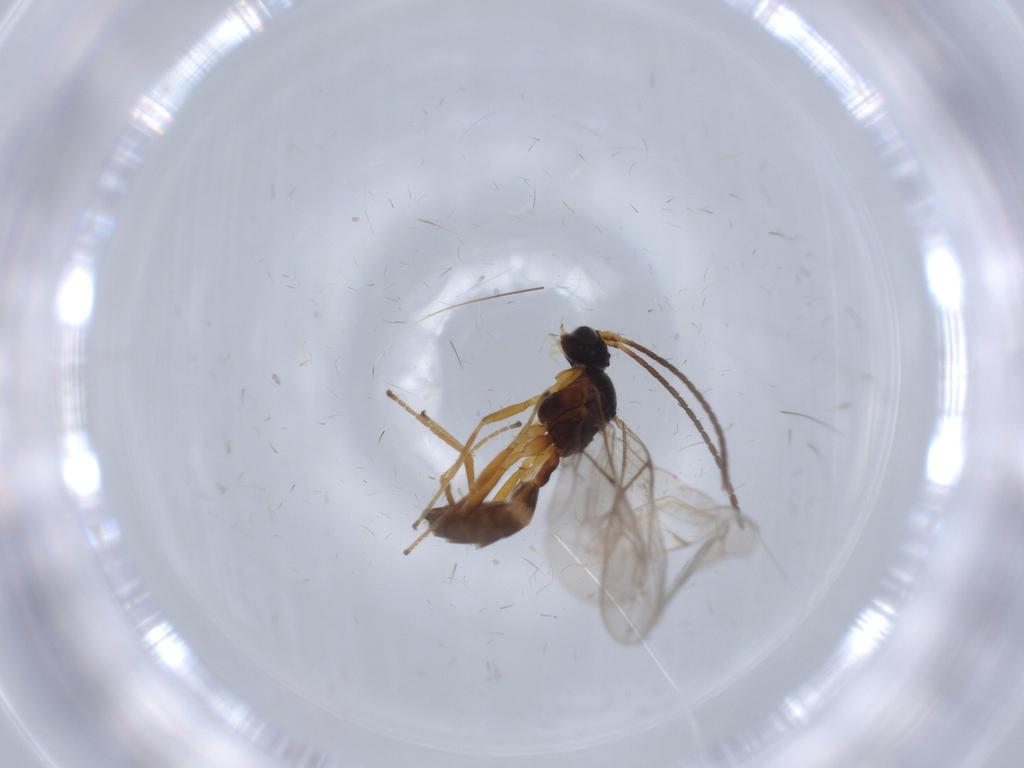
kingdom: Animalia
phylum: Arthropoda
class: Insecta
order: Hymenoptera
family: Braconidae
